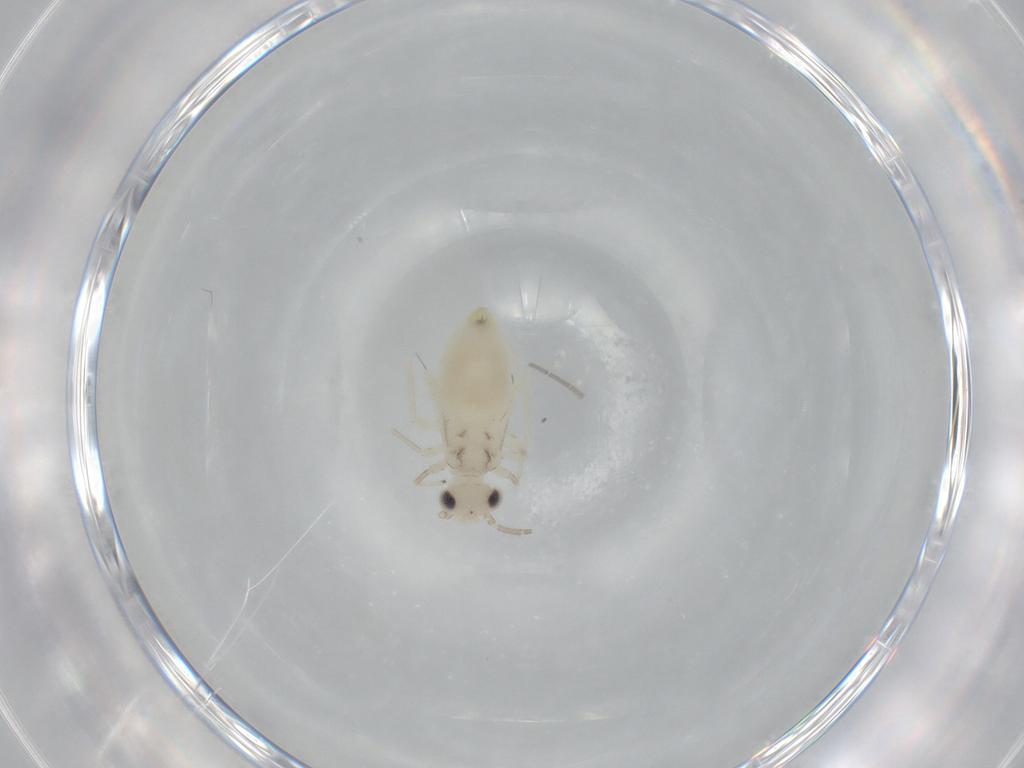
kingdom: Animalia
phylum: Arthropoda
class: Insecta
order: Psocodea
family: Caeciliusidae
